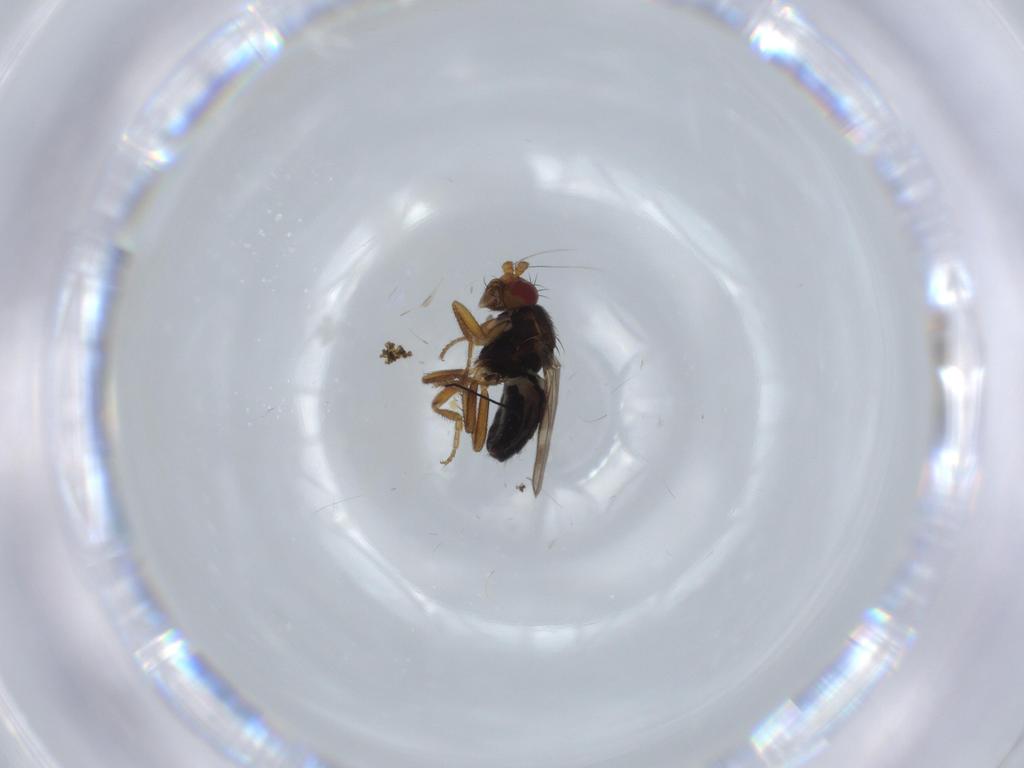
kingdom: Animalia
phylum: Arthropoda
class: Insecta
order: Diptera
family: Sphaeroceridae
